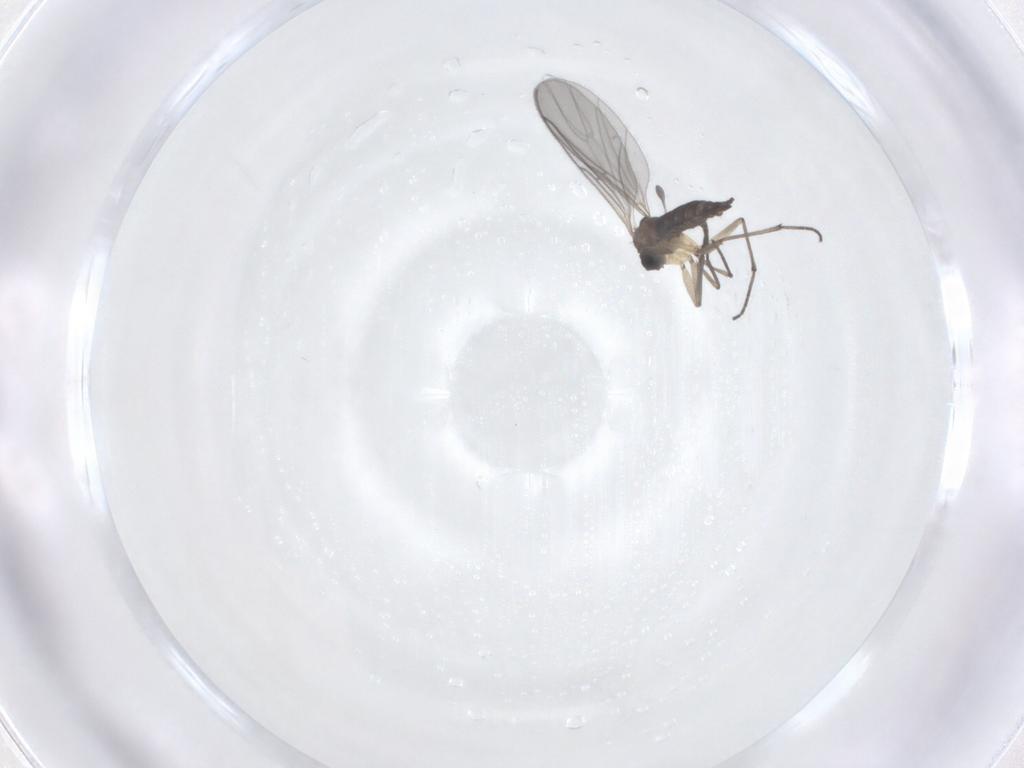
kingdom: Animalia
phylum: Arthropoda
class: Insecta
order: Diptera
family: Sciaridae
